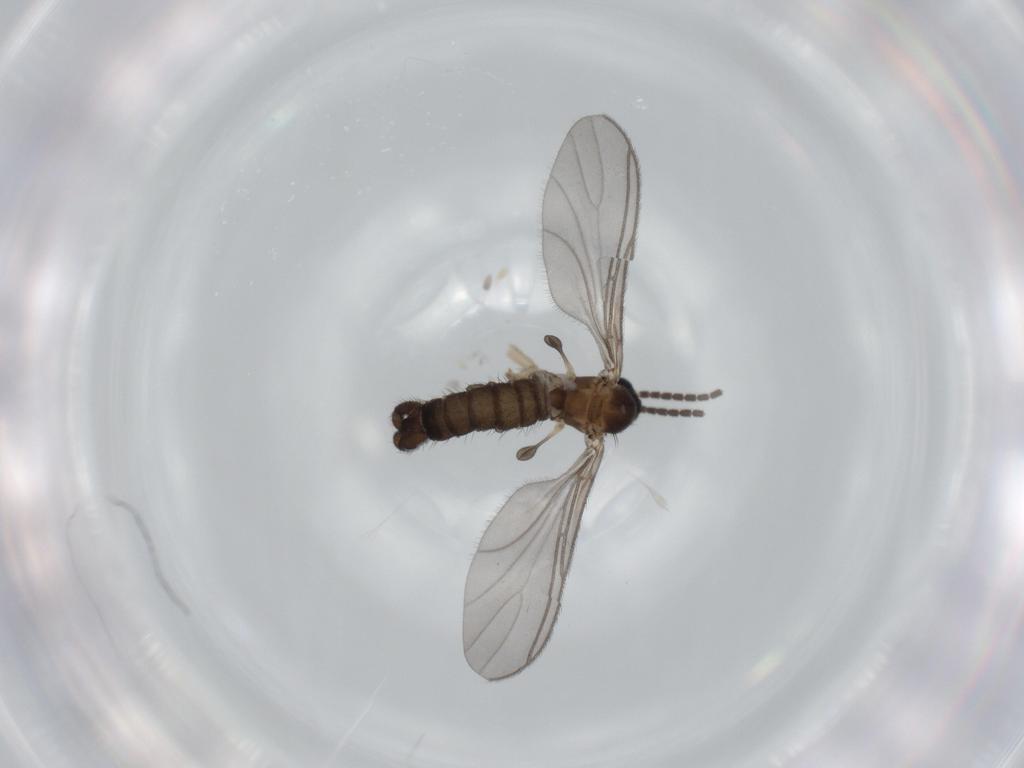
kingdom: Animalia
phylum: Arthropoda
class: Insecta
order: Diptera
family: Sciaridae
